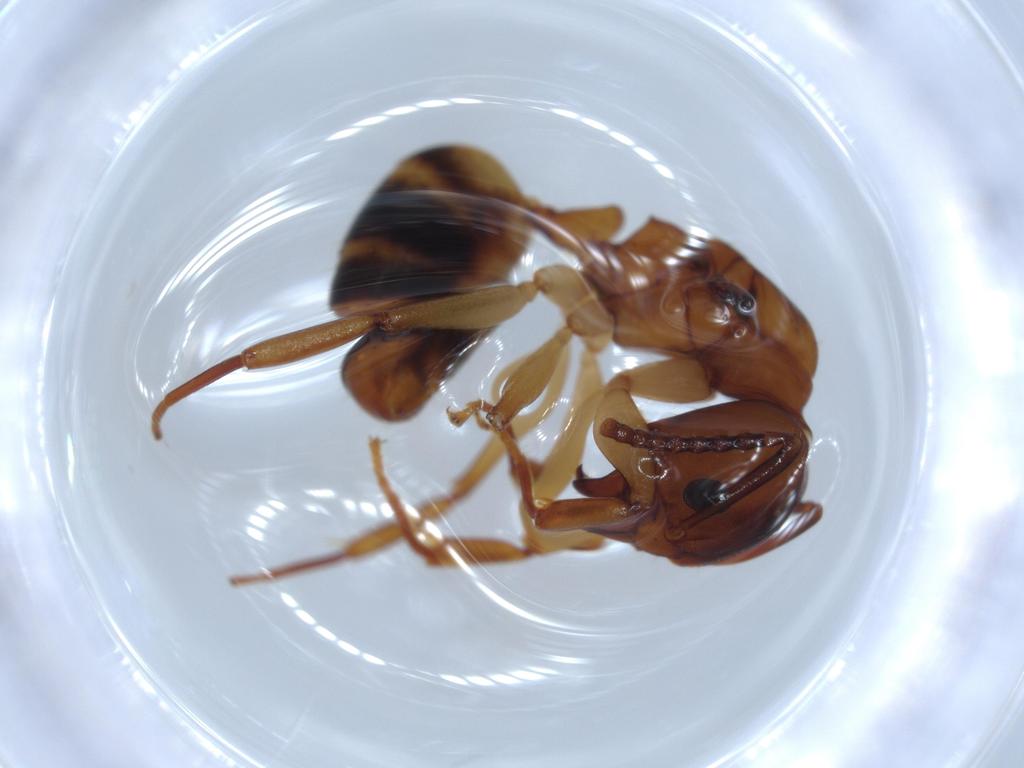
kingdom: Animalia
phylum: Arthropoda
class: Insecta
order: Hymenoptera
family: Formicidae
